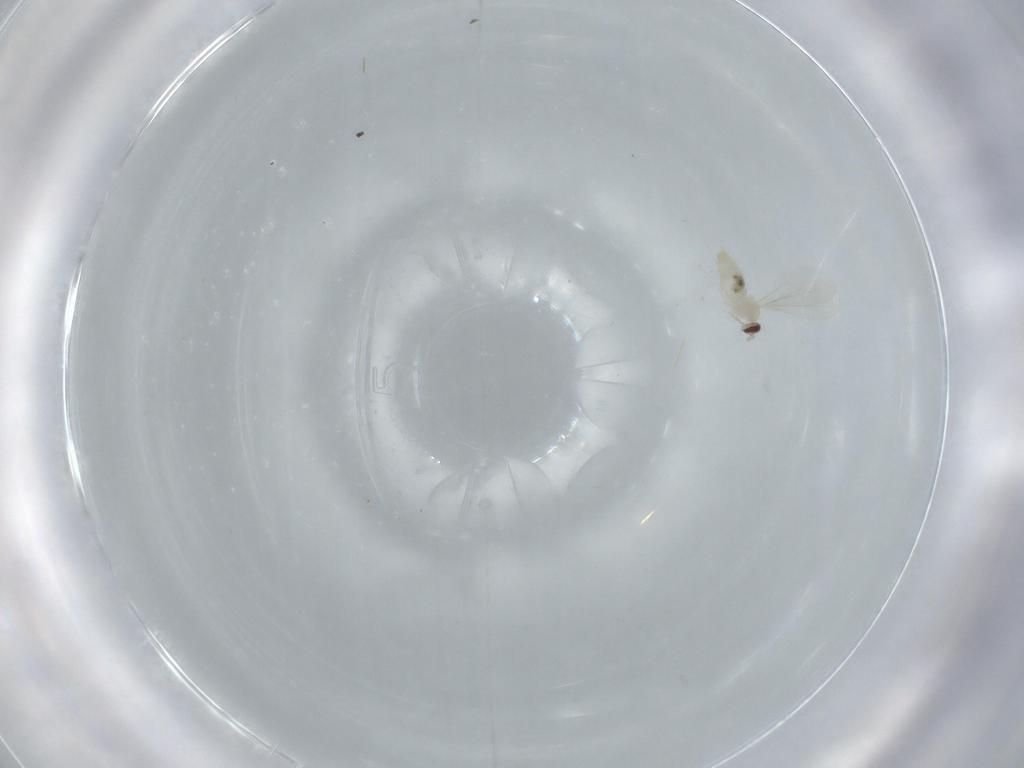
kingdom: Animalia
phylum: Arthropoda
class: Insecta
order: Diptera
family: Cecidomyiidae
